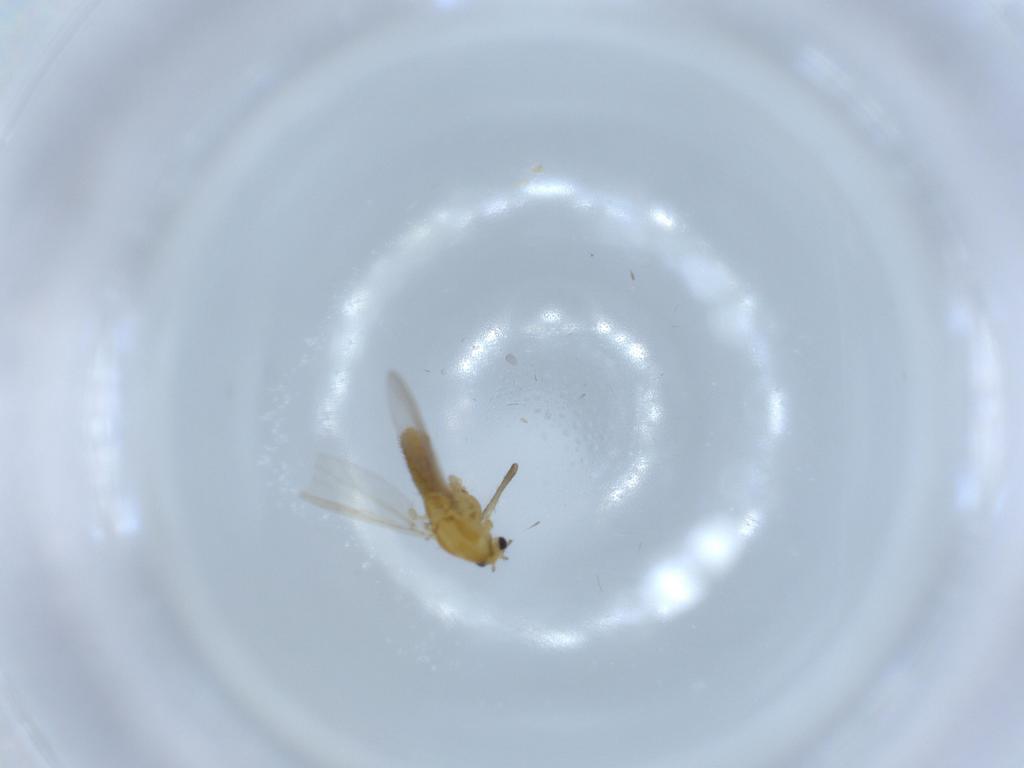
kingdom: Animalia
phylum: Arthropoda
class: Insecta
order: Diptera
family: Chironomidae
